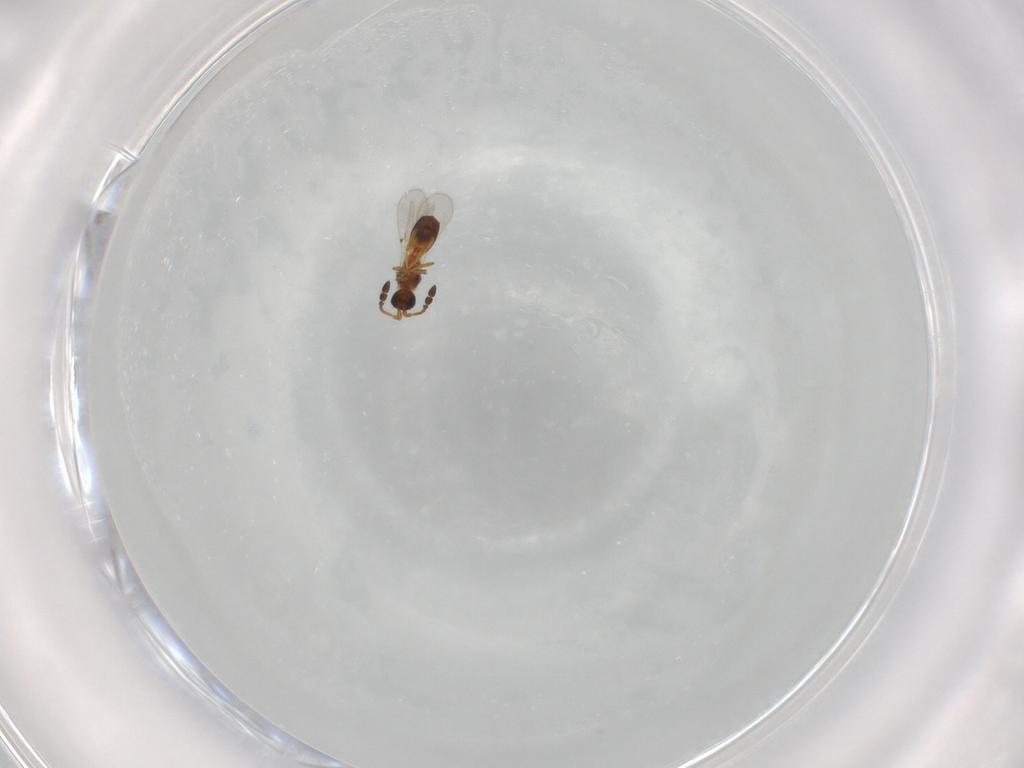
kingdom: Animalia
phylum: Arthropoda
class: Insecta
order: Hymenoptera
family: Diapriidae
